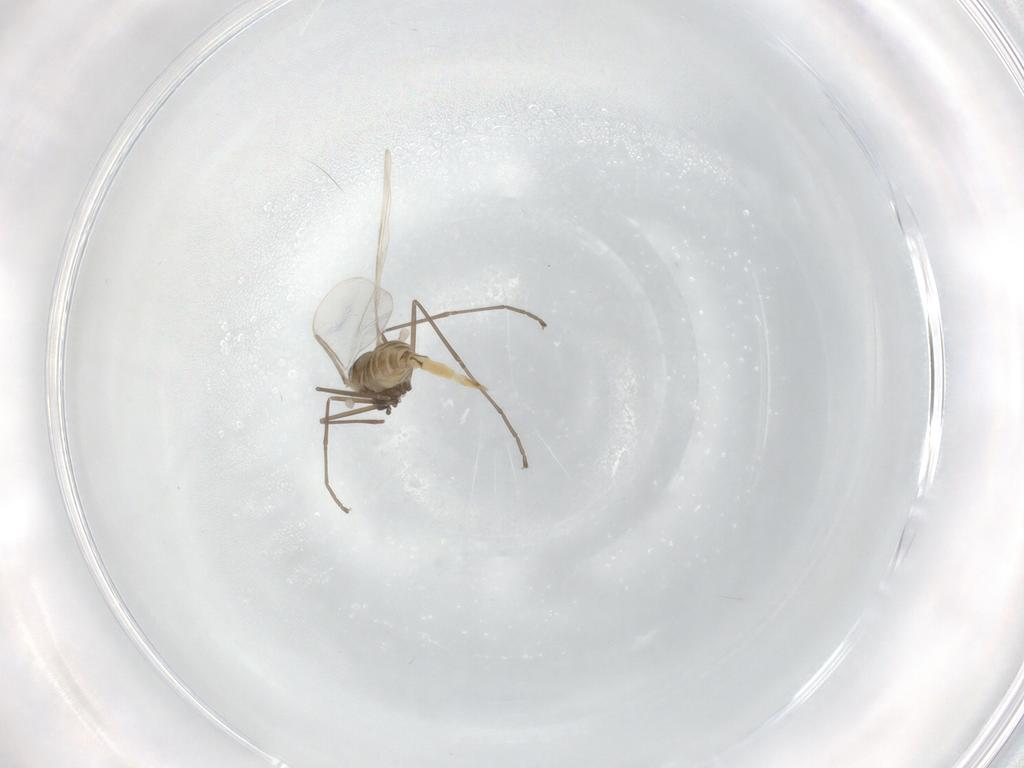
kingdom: Animalia
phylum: Arthropoda
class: Insecta
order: Diptera
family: Cecidomyiidae
